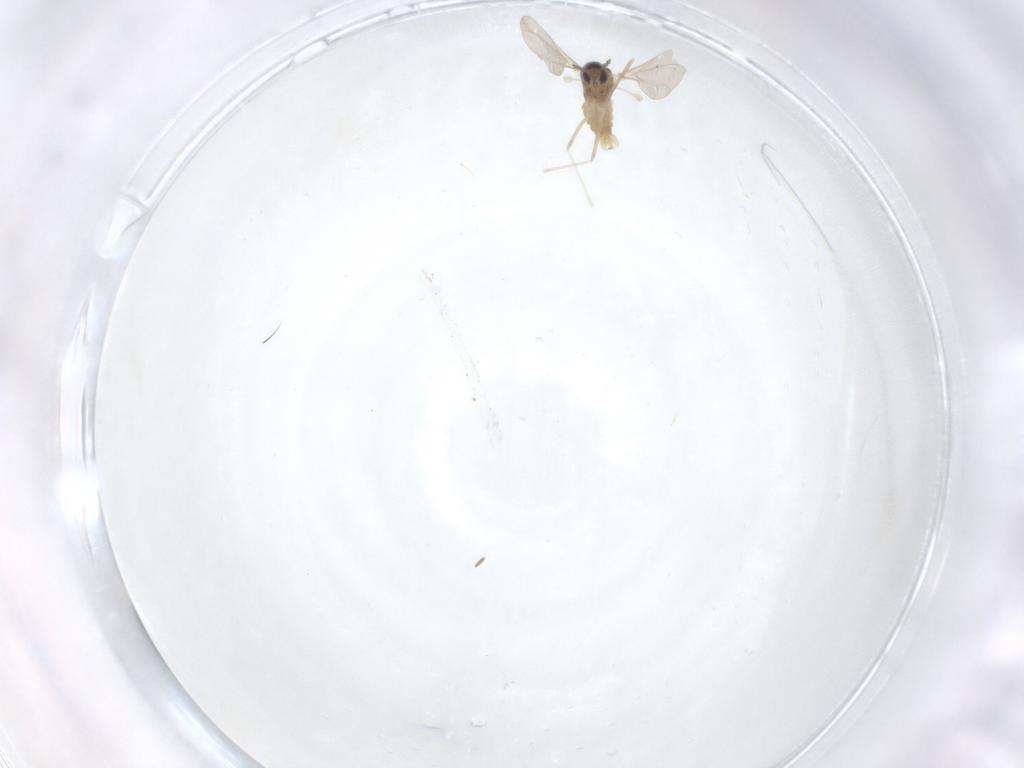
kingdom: Animalia
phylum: Arthropoda
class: Insecta
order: Diptera
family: Cecidomyiidae
